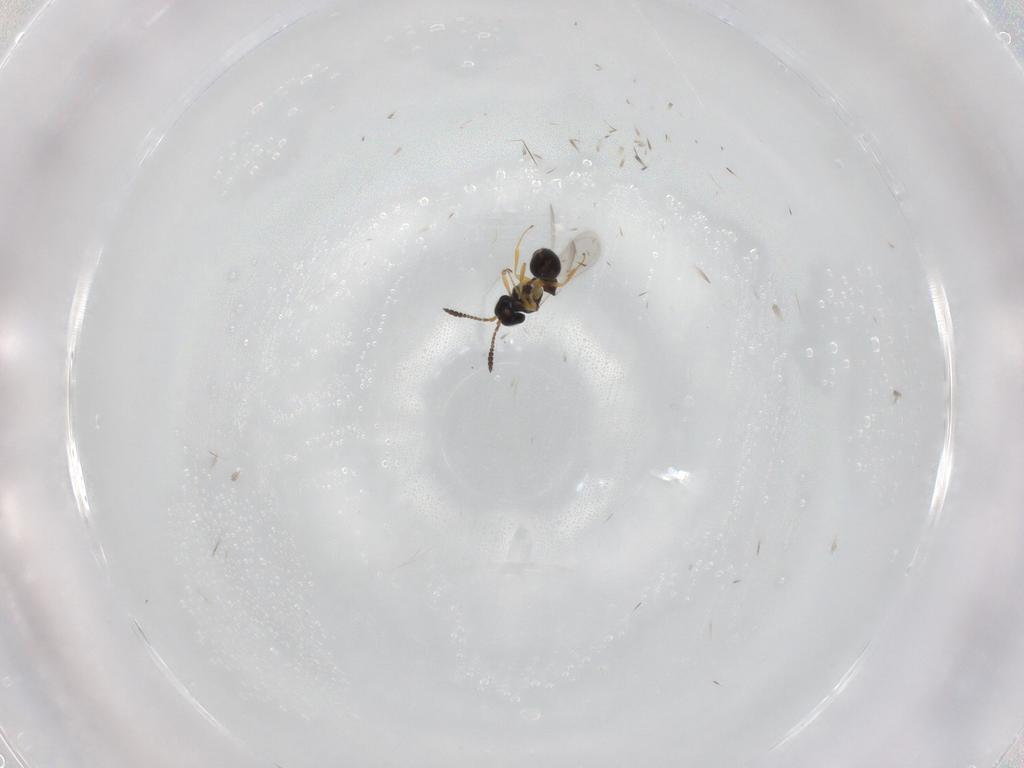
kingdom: Animalia
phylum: Arthropoda
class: Insecta
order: Hymenoptera
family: Scelionidae
